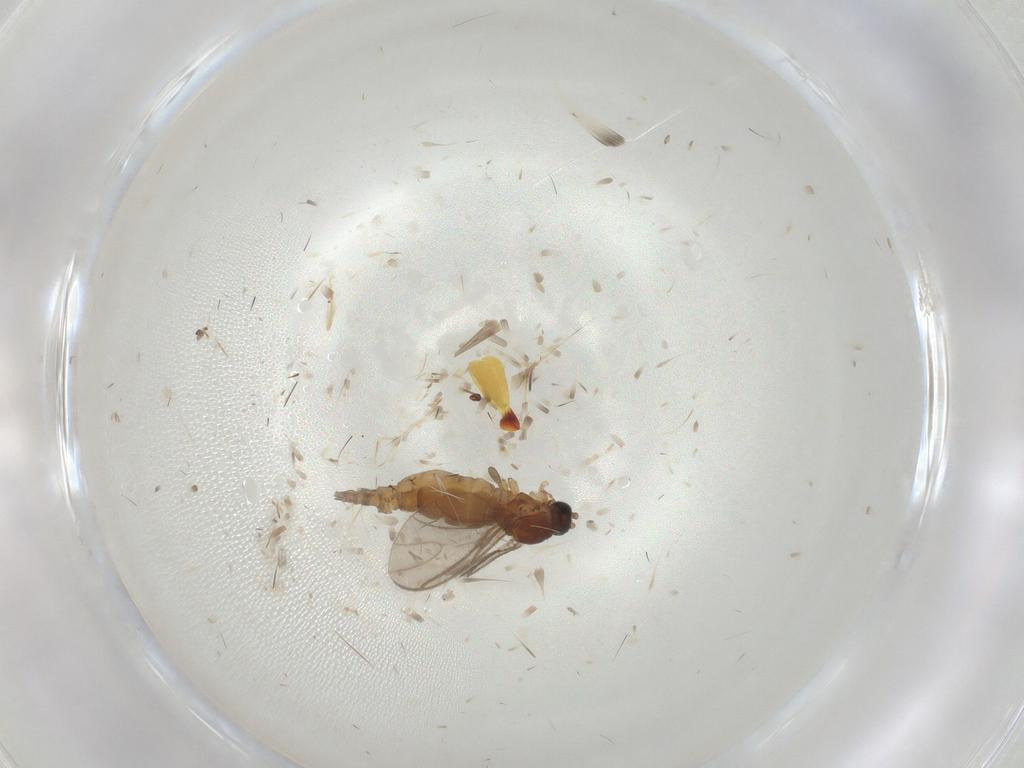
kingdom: Animalia
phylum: Arthropoda
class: Insecta
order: Diptera
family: Sciaridae
